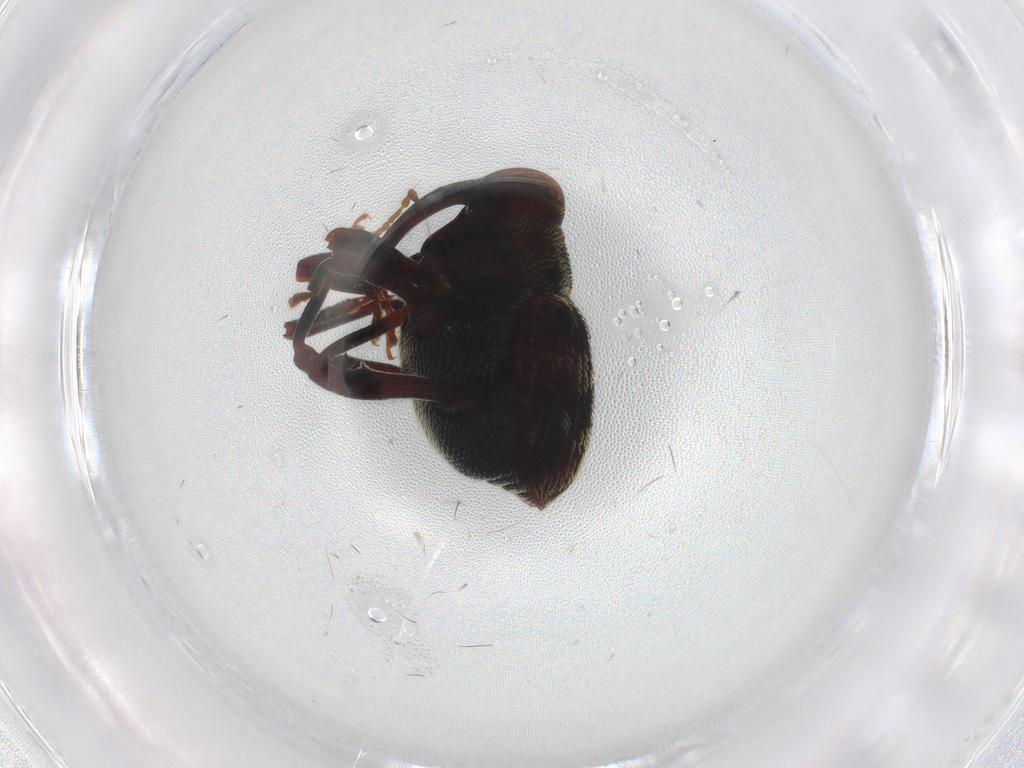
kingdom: Animalia
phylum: Arthropoda
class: Insecta
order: Coleoptera
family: Curculionidae
